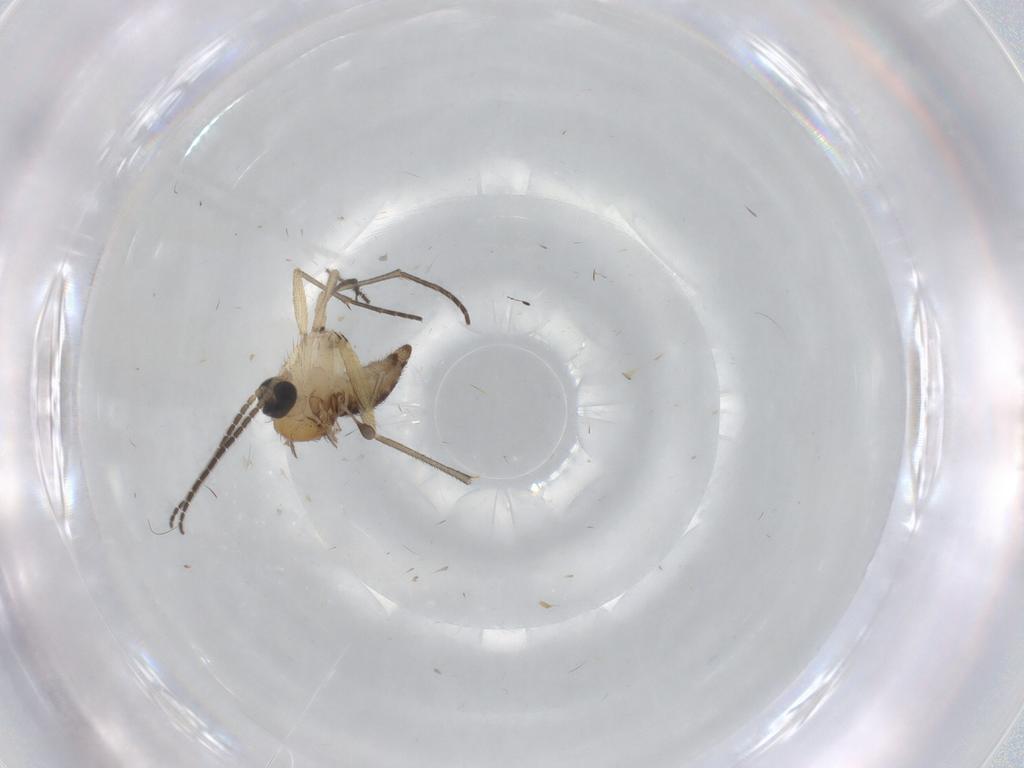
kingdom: Animalia
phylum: Arthropoda
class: Insecta
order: Diptera
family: Sciaridae
